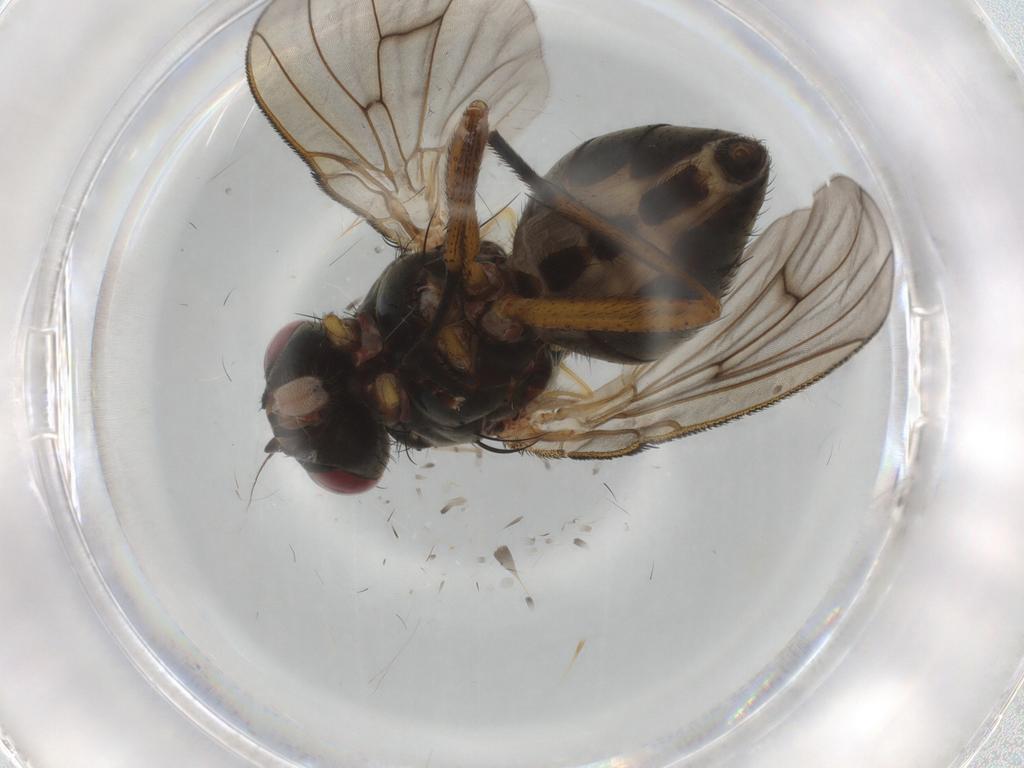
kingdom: Animalia
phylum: Arthropoda
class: Insecta
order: Diptera
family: Muscidae
